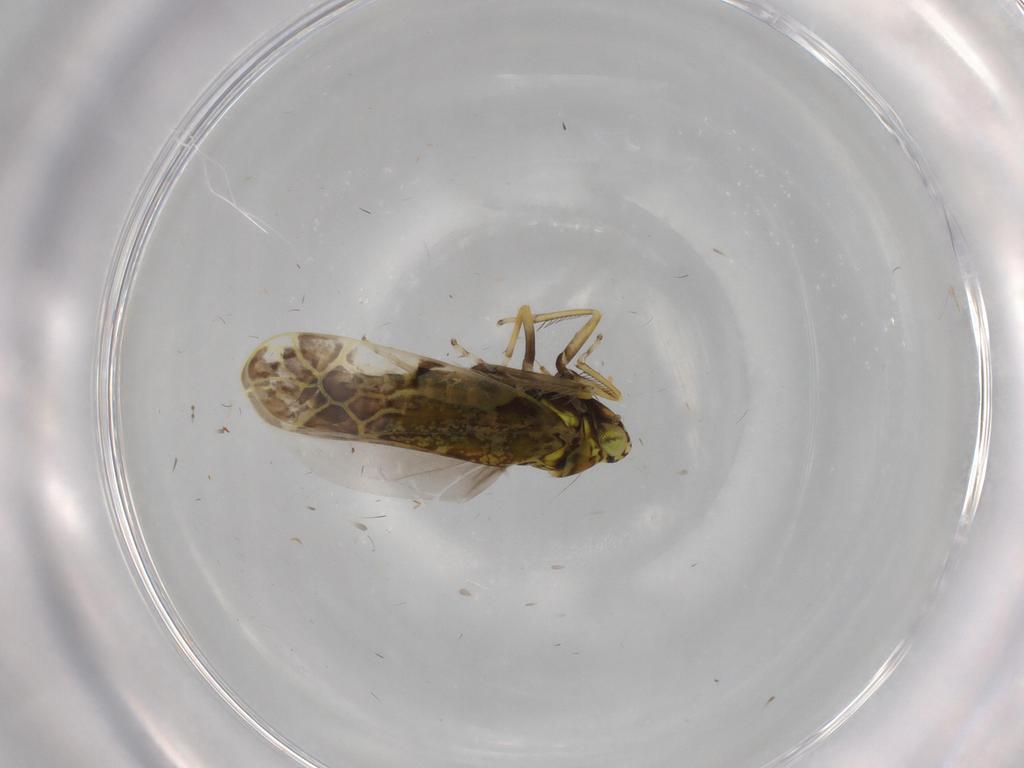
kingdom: Animalia
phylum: Arthropoda
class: Insecta
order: Hemiptera
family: Cicadellidae
